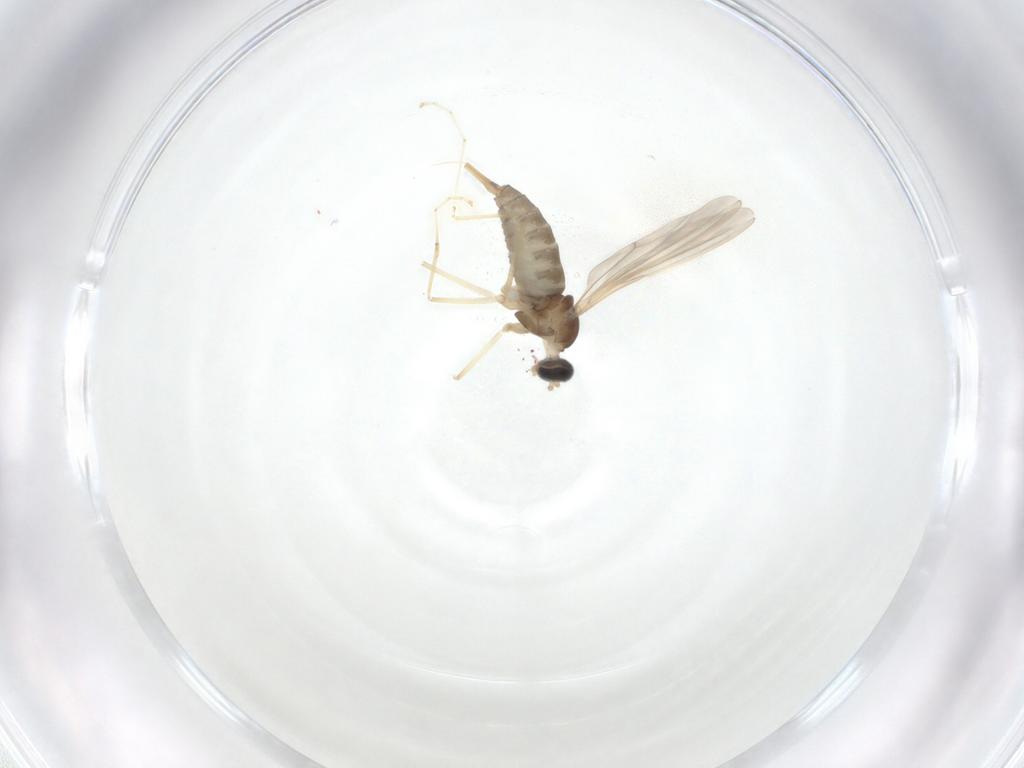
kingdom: Animalia
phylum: Arthropoda
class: Insecta
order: Diptera
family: Cecidomyiidae
